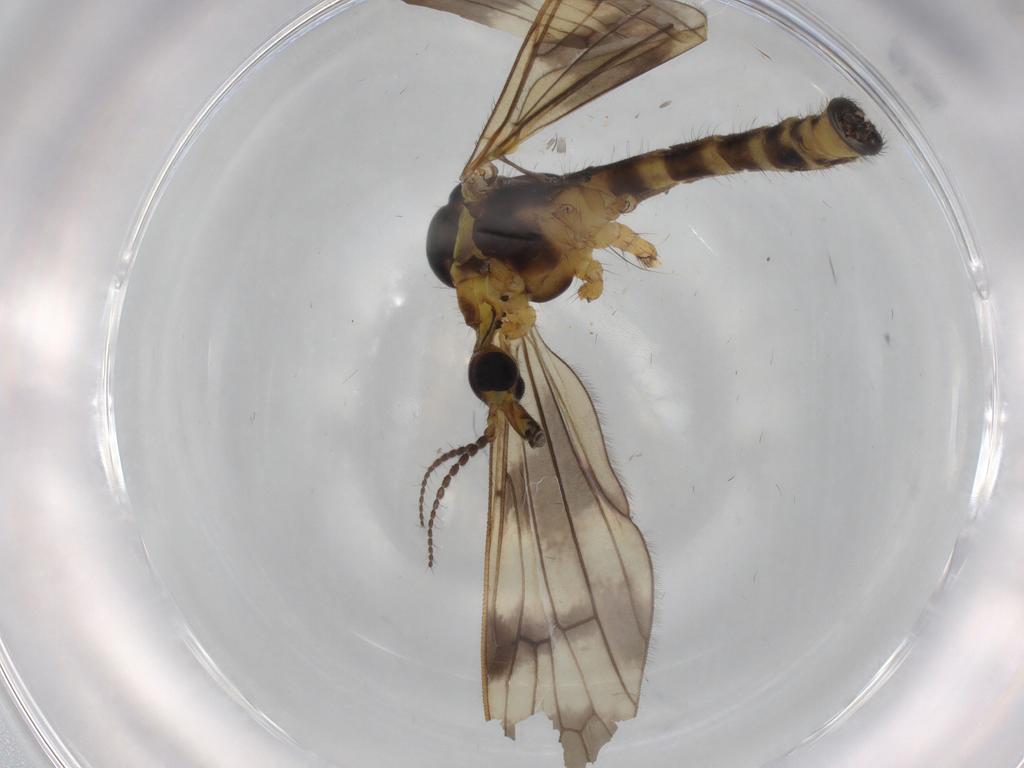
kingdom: Animalia
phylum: Arthropoda
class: Insecta
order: Diptera
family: Limoniidae
